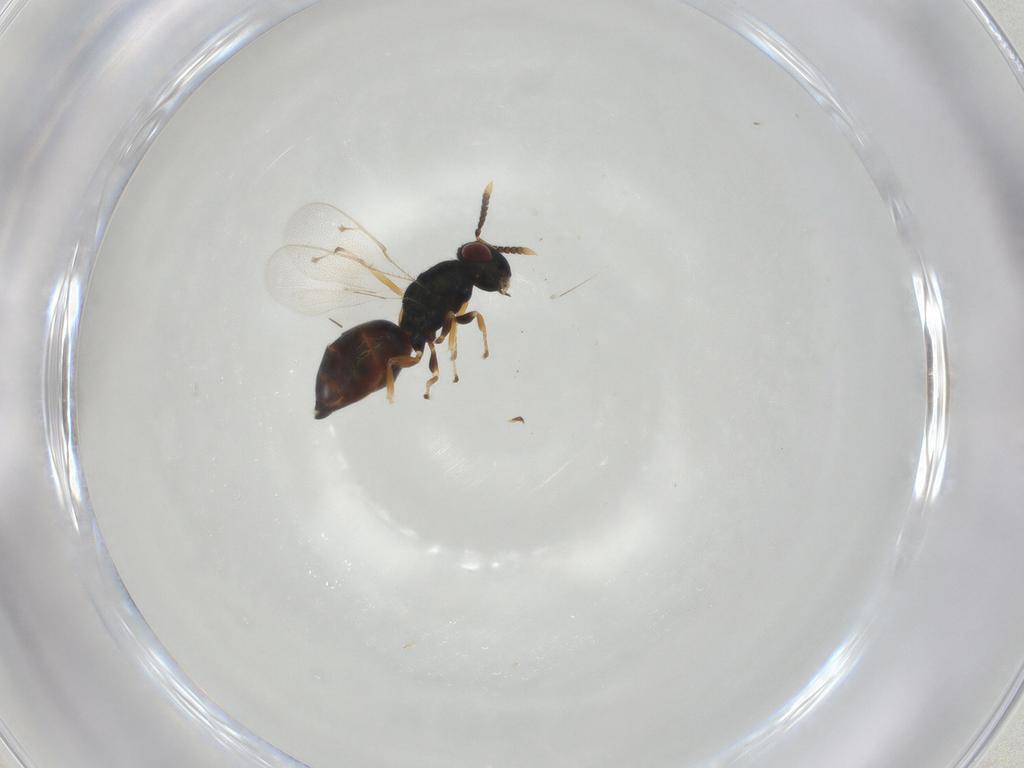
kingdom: Animalia
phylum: Arthropoda
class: Insecta
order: Hymenoptera
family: Pteromalidae
